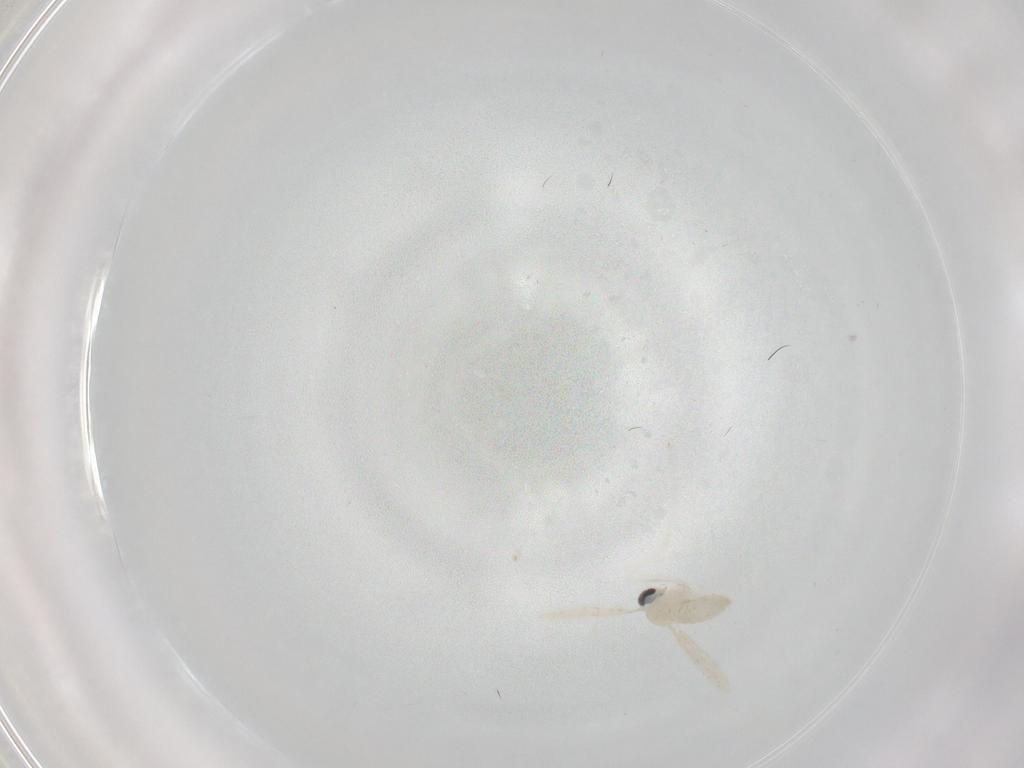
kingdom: Animalia
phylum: Arthropoda
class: Insecta
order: Diptera
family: Cecidomyiidae
